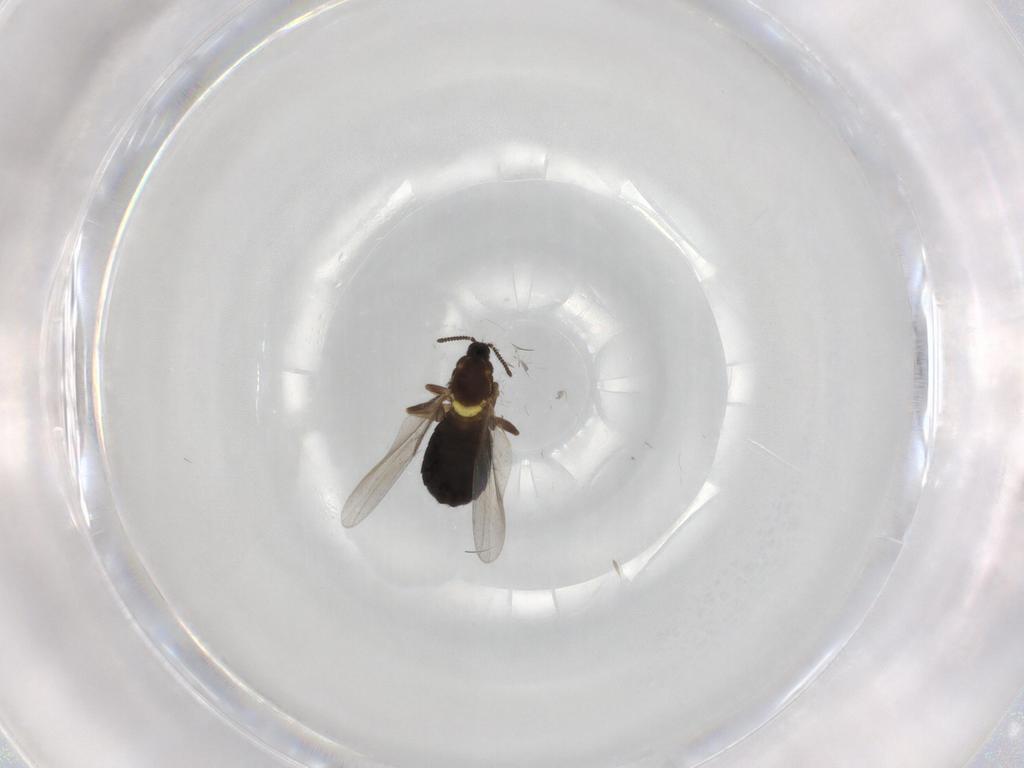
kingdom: Animalia
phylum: Arthropoda
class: Insecta
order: Diptera
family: Scatopsidae
